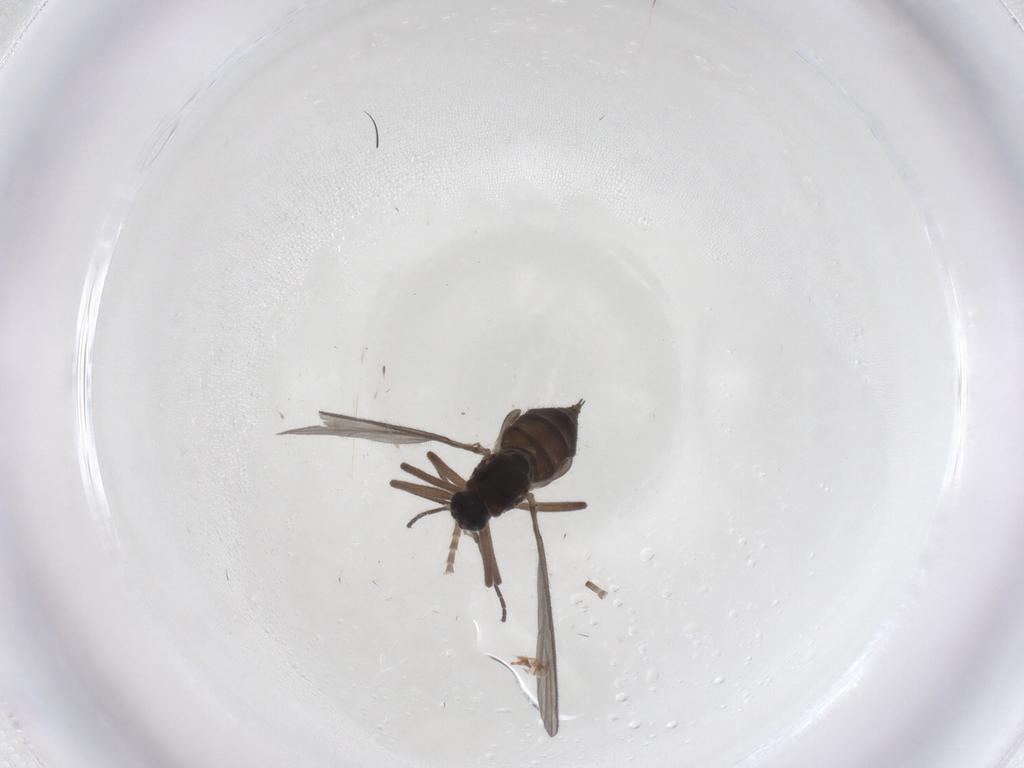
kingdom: Animalia
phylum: Arthropoda
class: Insecta
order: Diptera
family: Sciaridae
